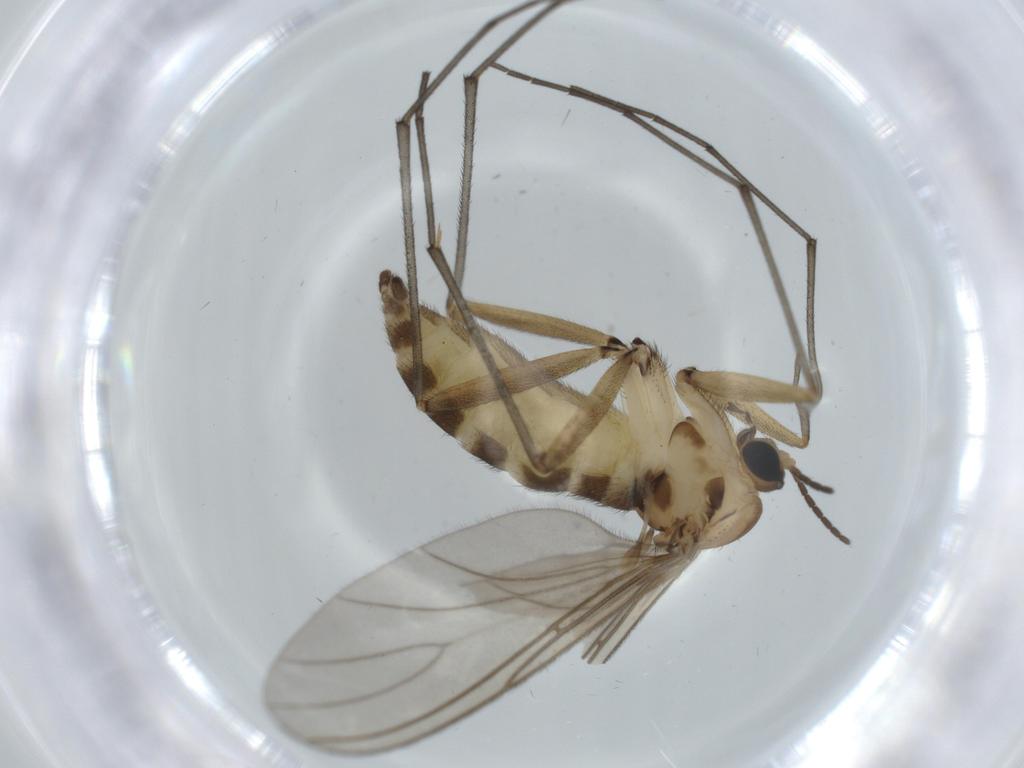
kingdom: Animalia
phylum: Arthropoda
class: Insecta
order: Diptera
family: Sciaridae
